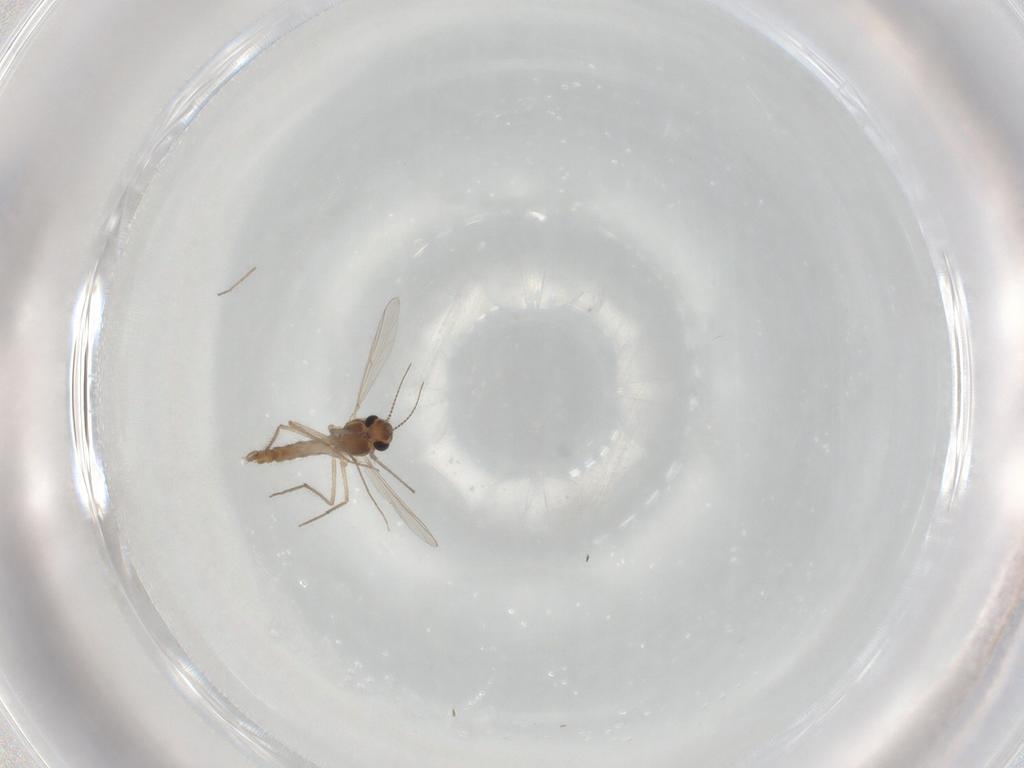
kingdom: Animalia
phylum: Arthropoda
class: Insecta
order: Diptera
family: Chironomidae
